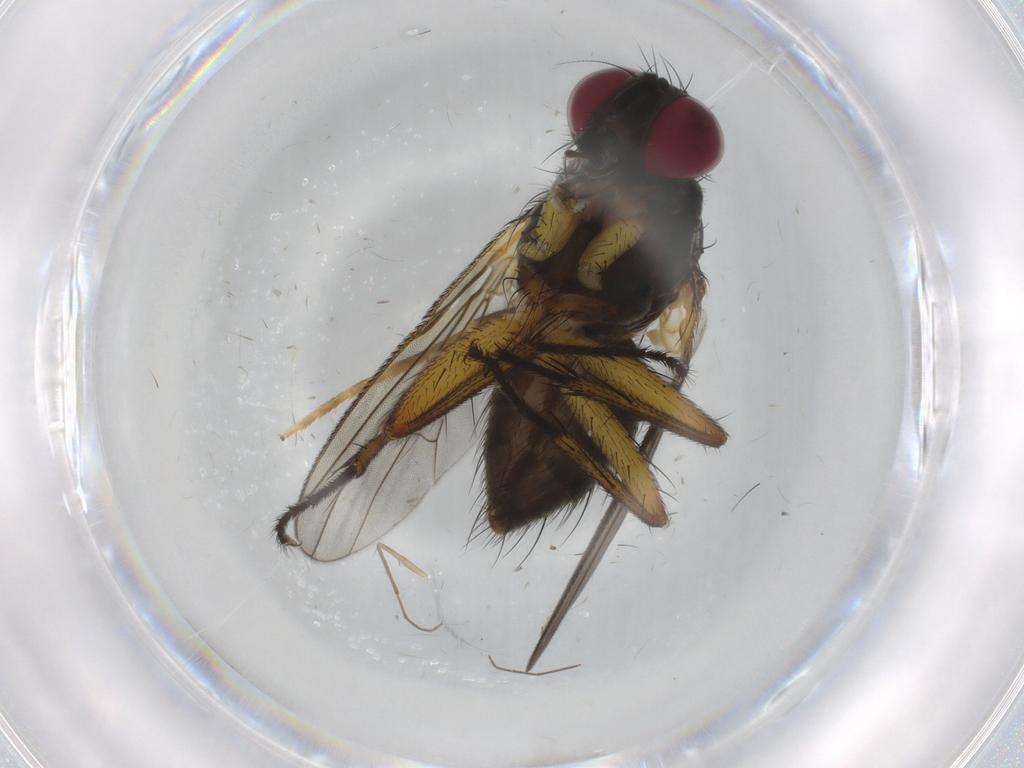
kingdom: Animalia
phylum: Arthropoda
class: Insecta
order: Diptera
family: Muscidae
